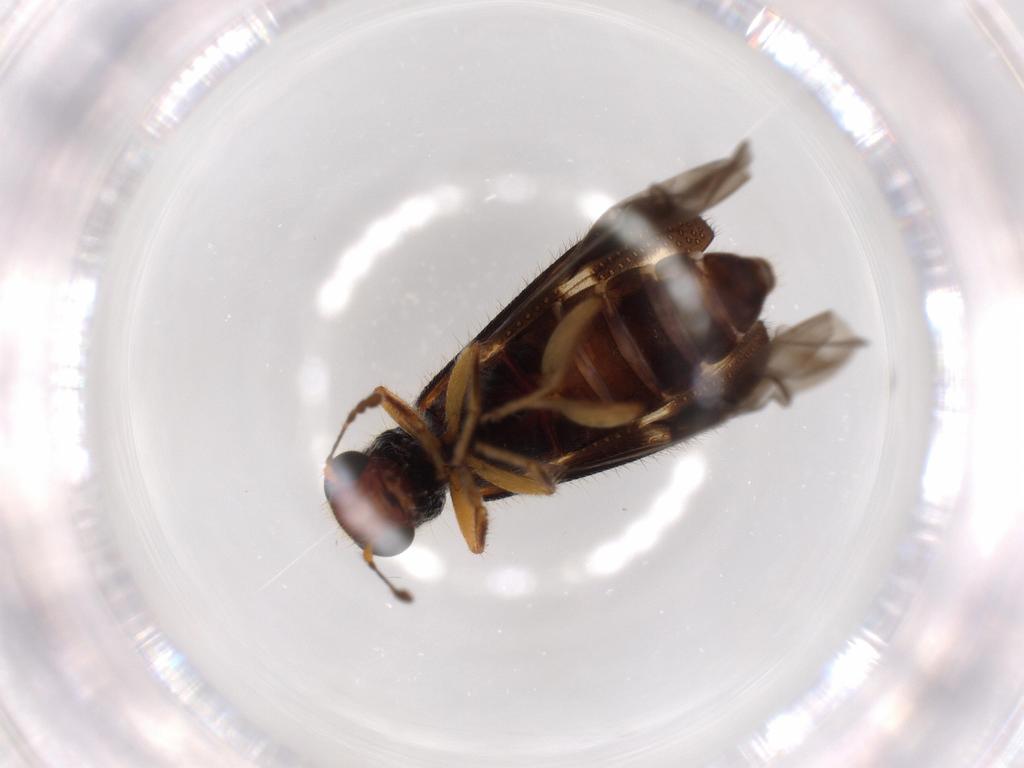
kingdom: Animalia
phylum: Arthropoda
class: Insecta
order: Coleoptera
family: Cleridae
